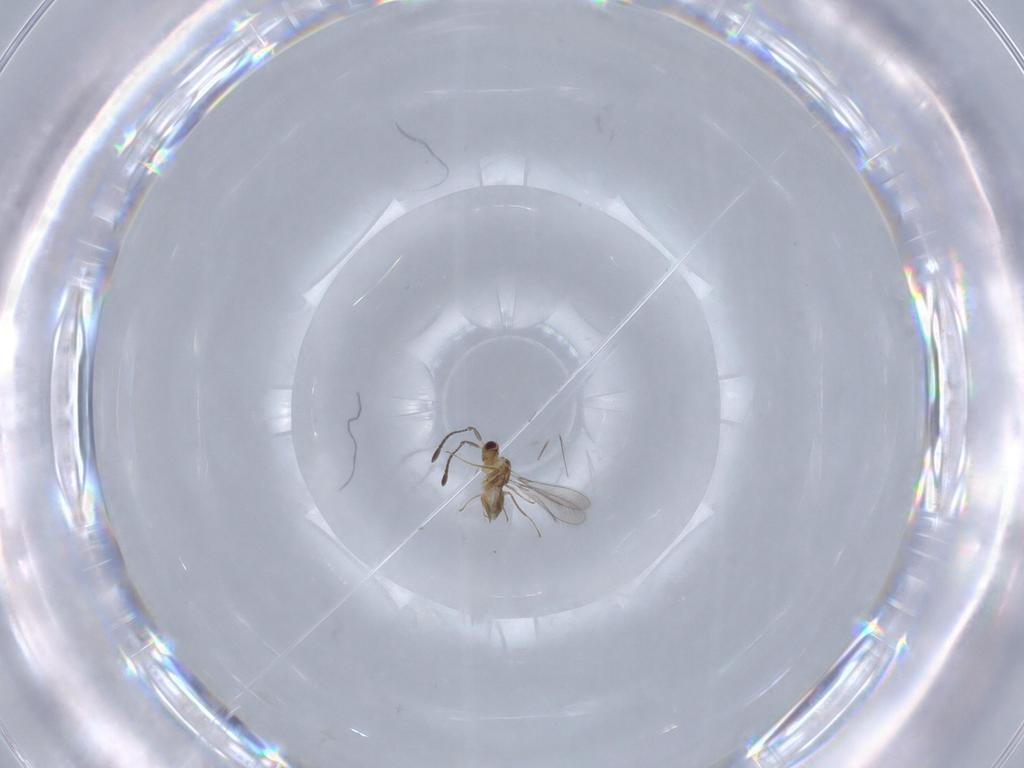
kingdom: Animalia
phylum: Arthropoda
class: Insecta
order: Hymenoptera
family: Mymaridae
